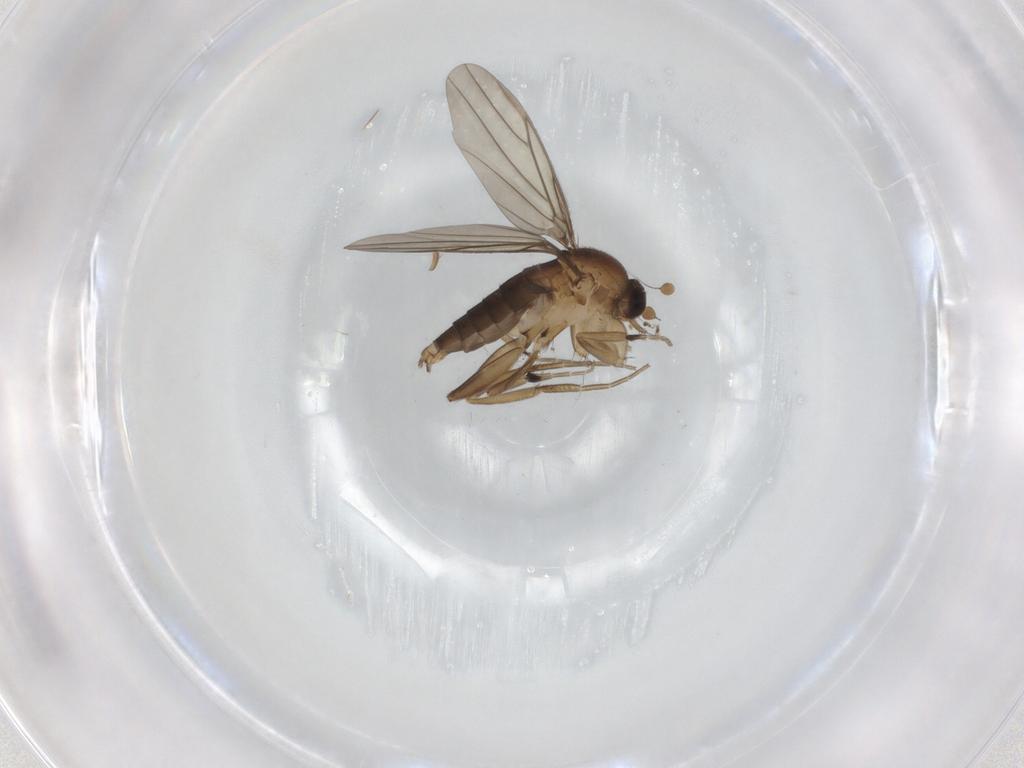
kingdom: Animalia
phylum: Arthropoda
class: Insecta
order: Diptera
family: Phoridae
